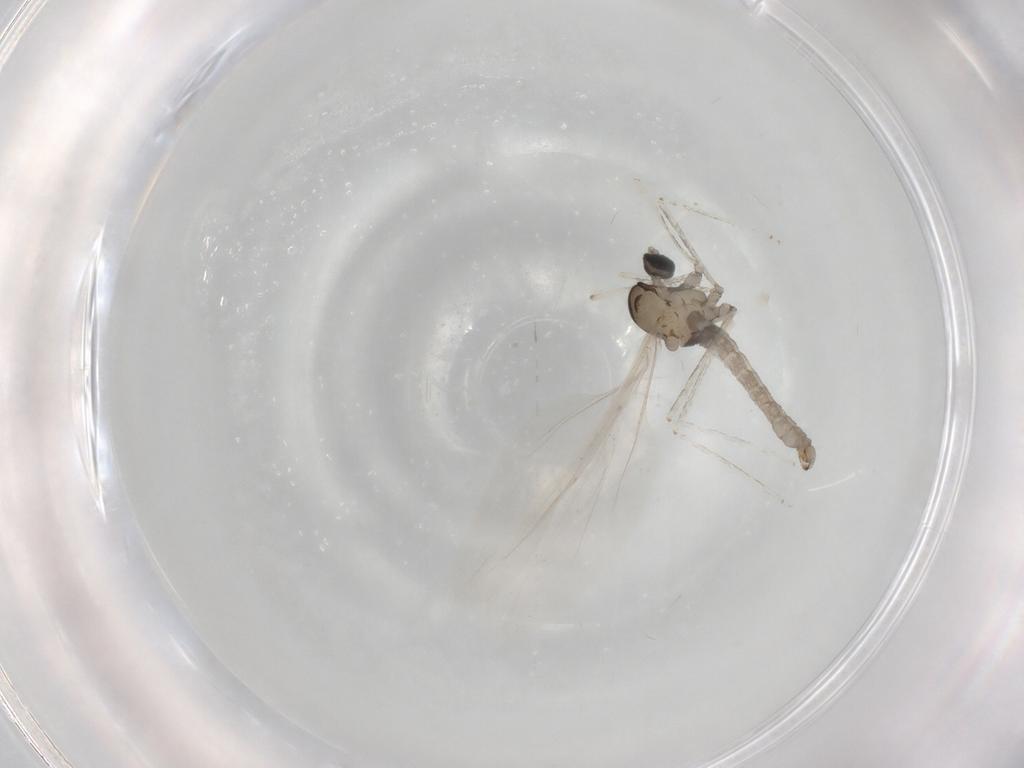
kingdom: Animalia
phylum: Arthropoda
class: Insecta
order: Diptera
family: Cecidomyiidae
